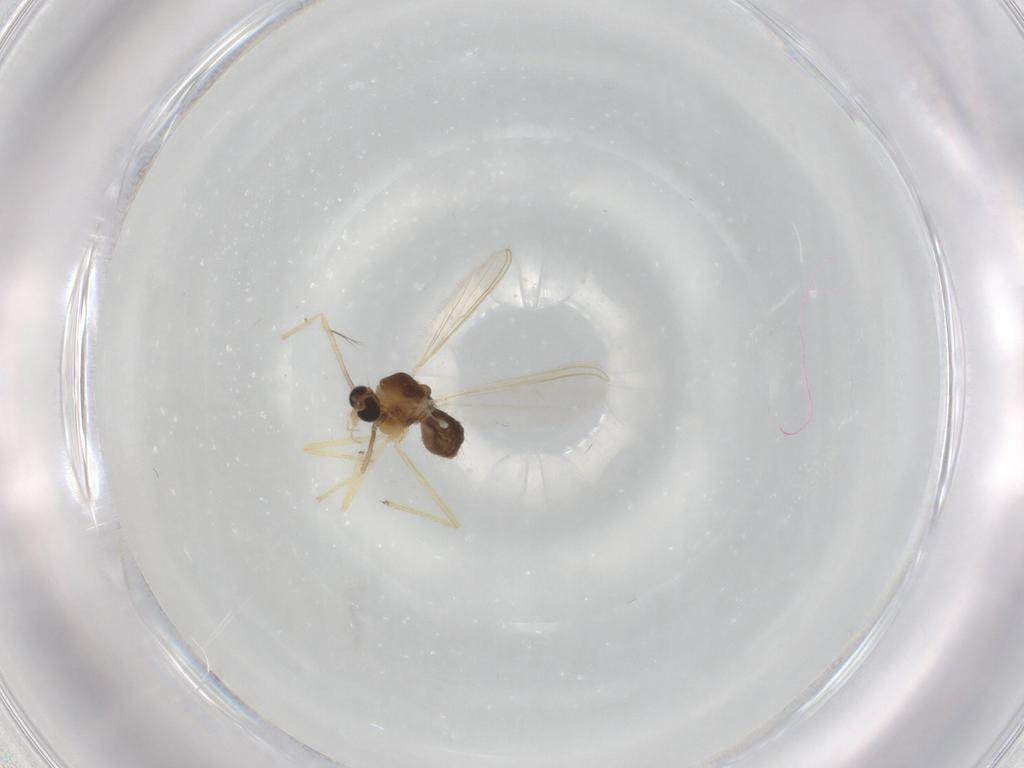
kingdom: Animalia
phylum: Arthropoda
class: Insecta
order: Diptera
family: Chironomidae
